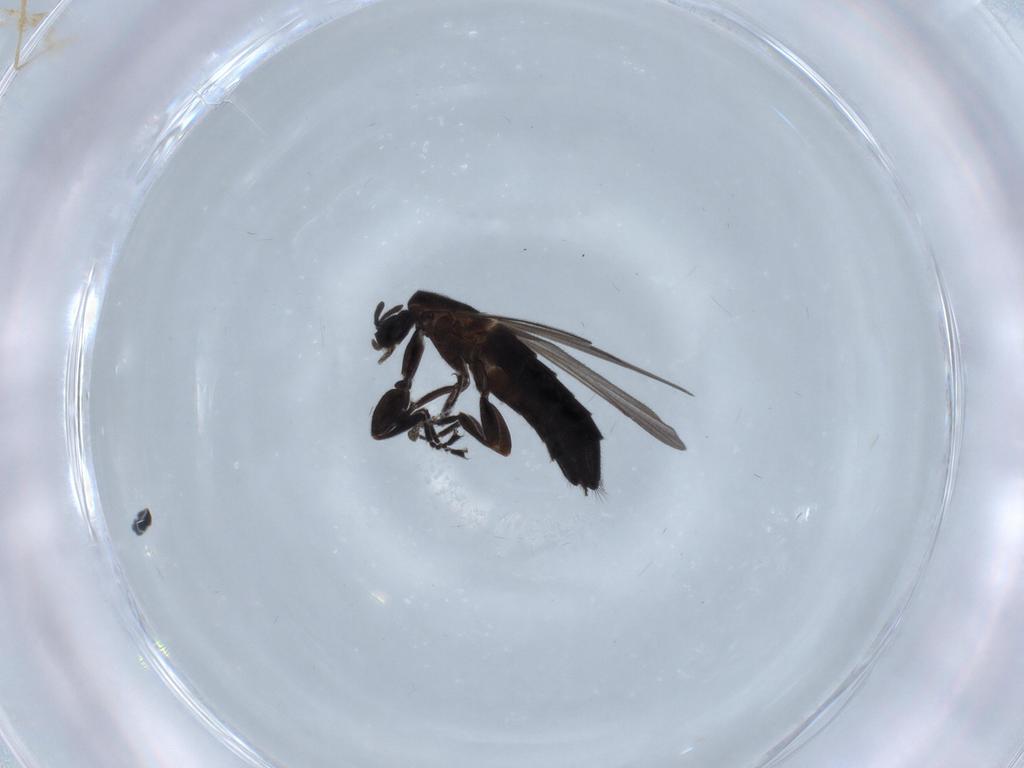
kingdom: Animalia
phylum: Arthropoda
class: Insecta
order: Diptera
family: Scatopsidae
